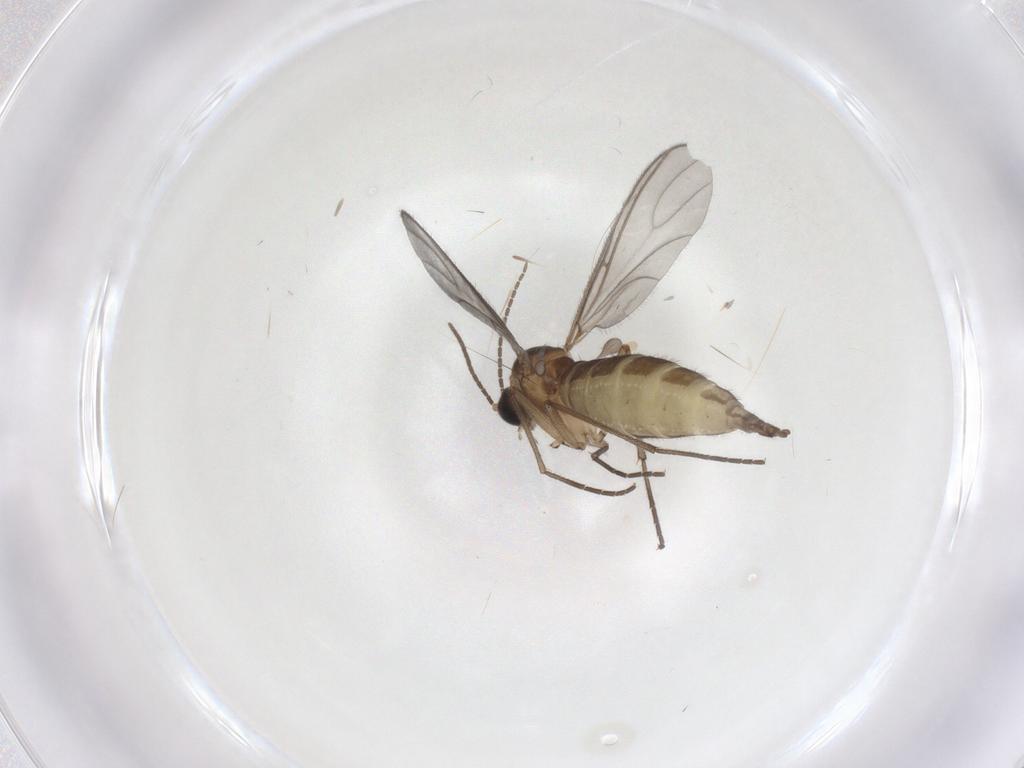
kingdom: Animalia
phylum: Arthropoda
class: Insecta
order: Diptera
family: Sciaridae
